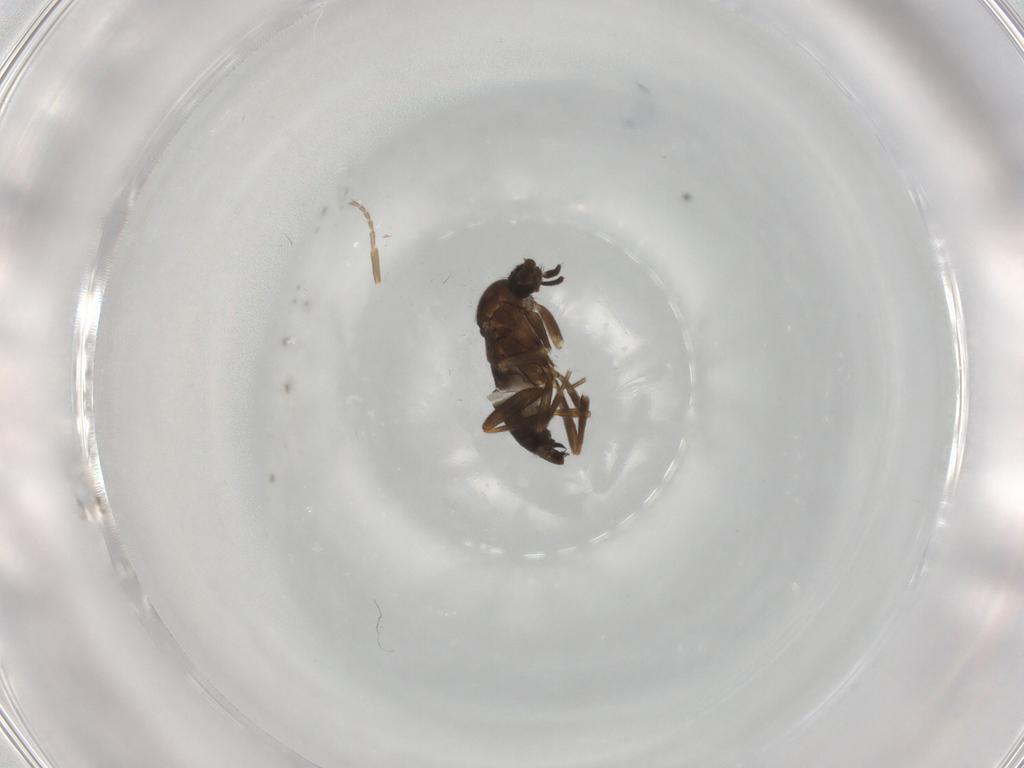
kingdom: Animalia
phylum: Arthropoda
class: Insecta
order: Diptera
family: Phoridae
